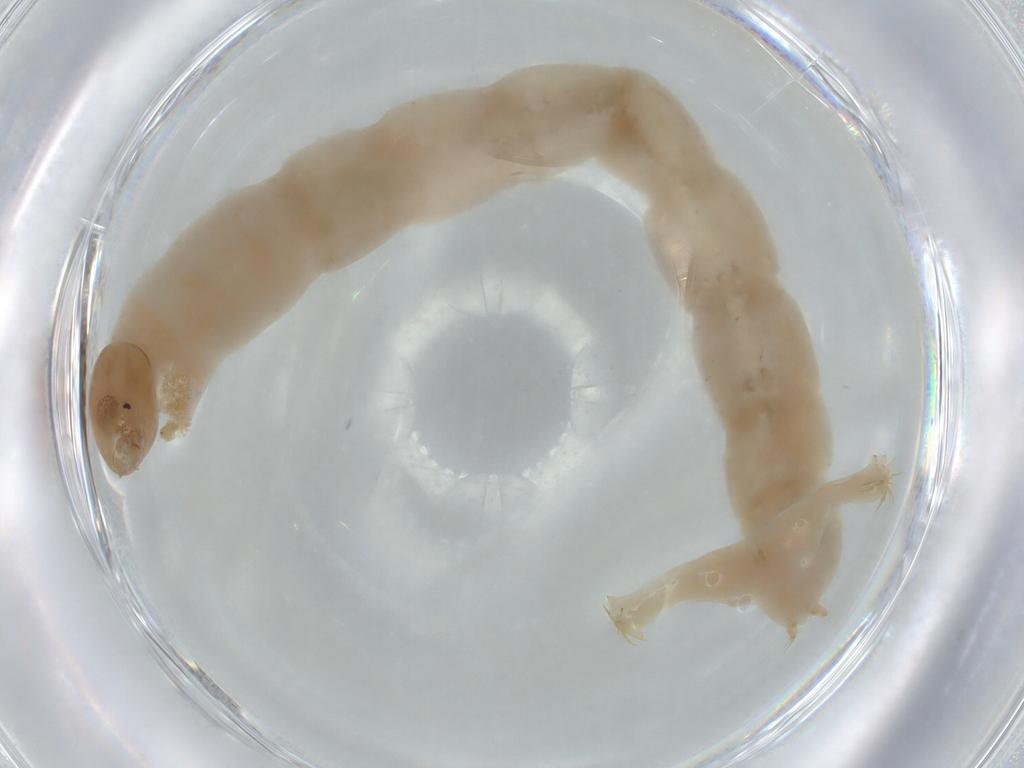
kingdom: Animalia
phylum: Arthropoda
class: Insecta
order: Diptera
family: Chironomidae
